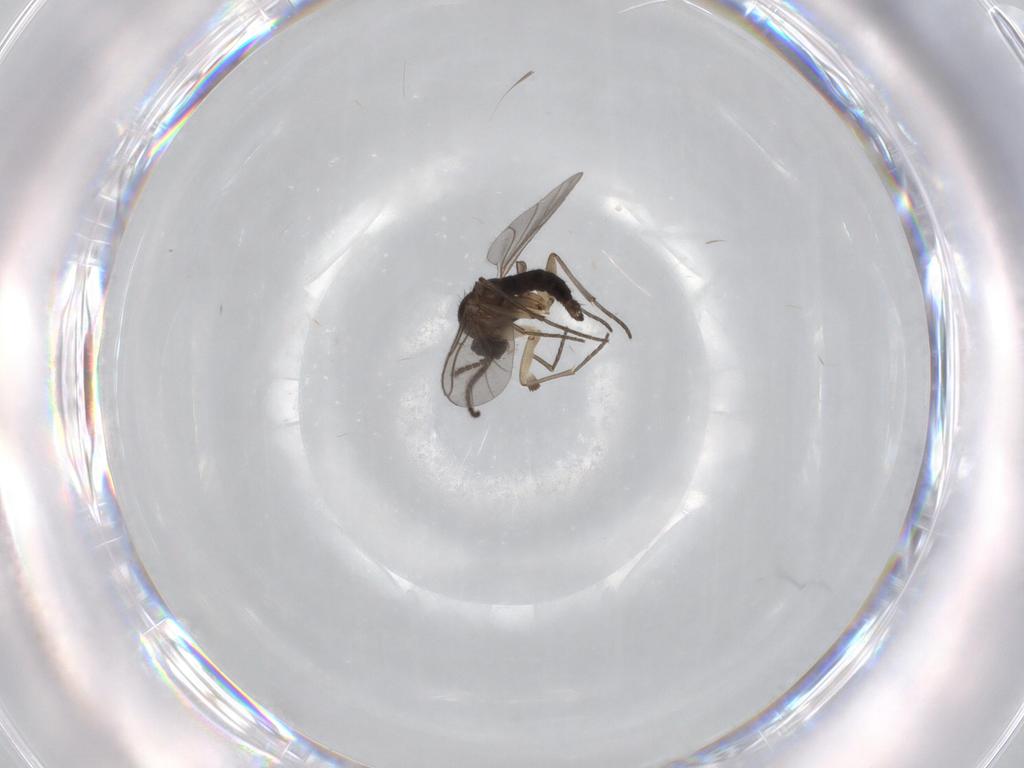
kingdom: Animalia
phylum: Arthropoda
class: Insecta
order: Diptera
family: Sciaridae
